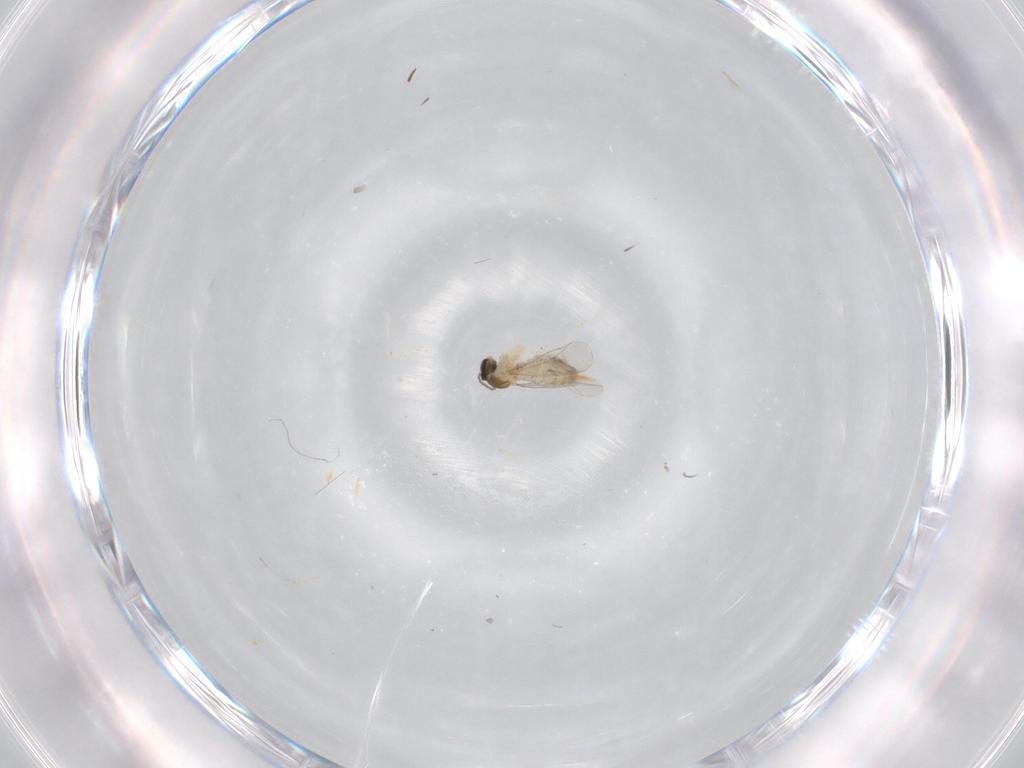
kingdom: Animalia
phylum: Arthropoda
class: Insecta
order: Diptera
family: Cecidomyiidae
